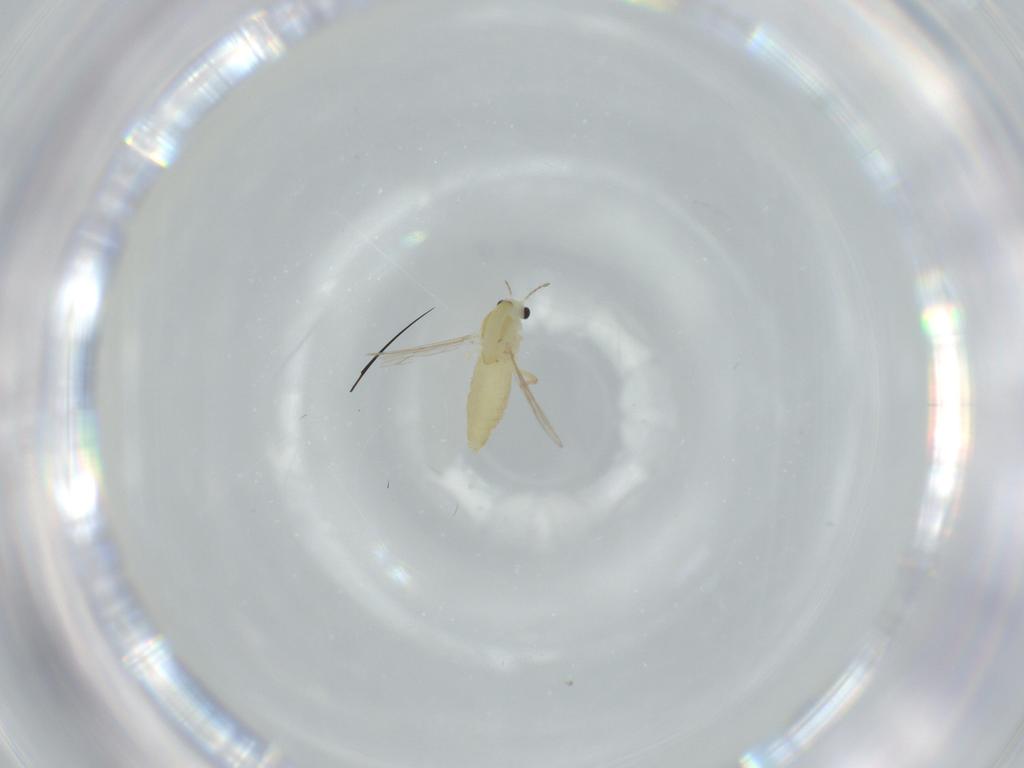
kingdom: Animalia
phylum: Arthropoda
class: Insecta
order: Diptera
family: Chironomidae
